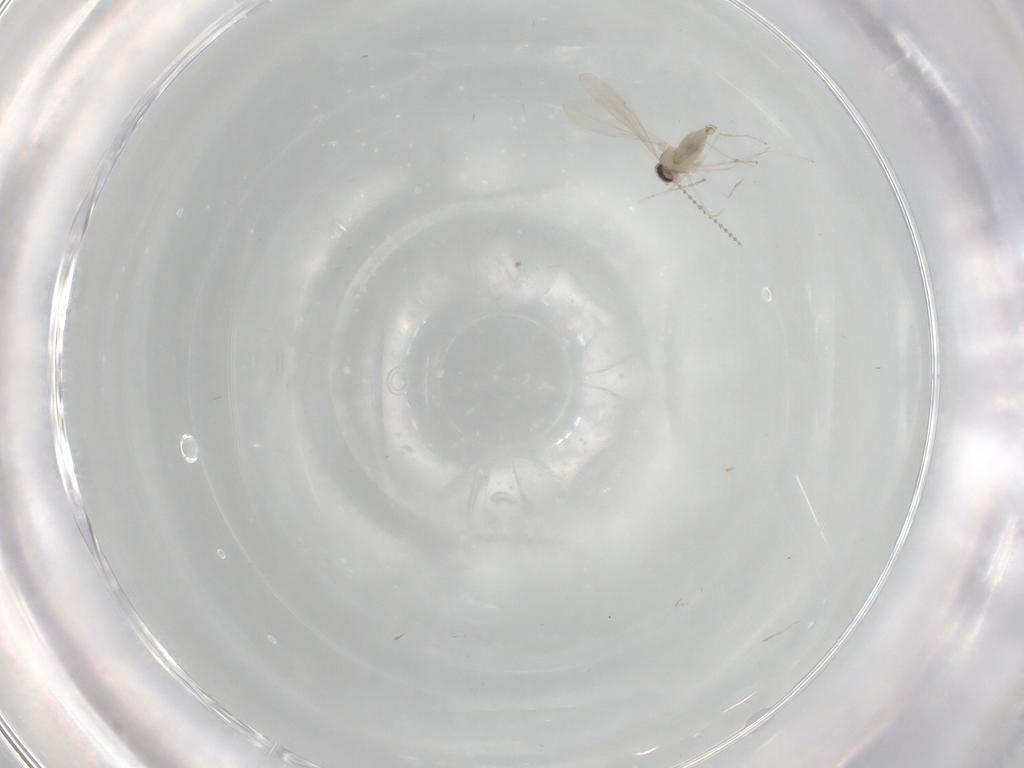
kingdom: Animalia
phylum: Arthropoda
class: Insecta
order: Diptera
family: Cecidomyiidae
